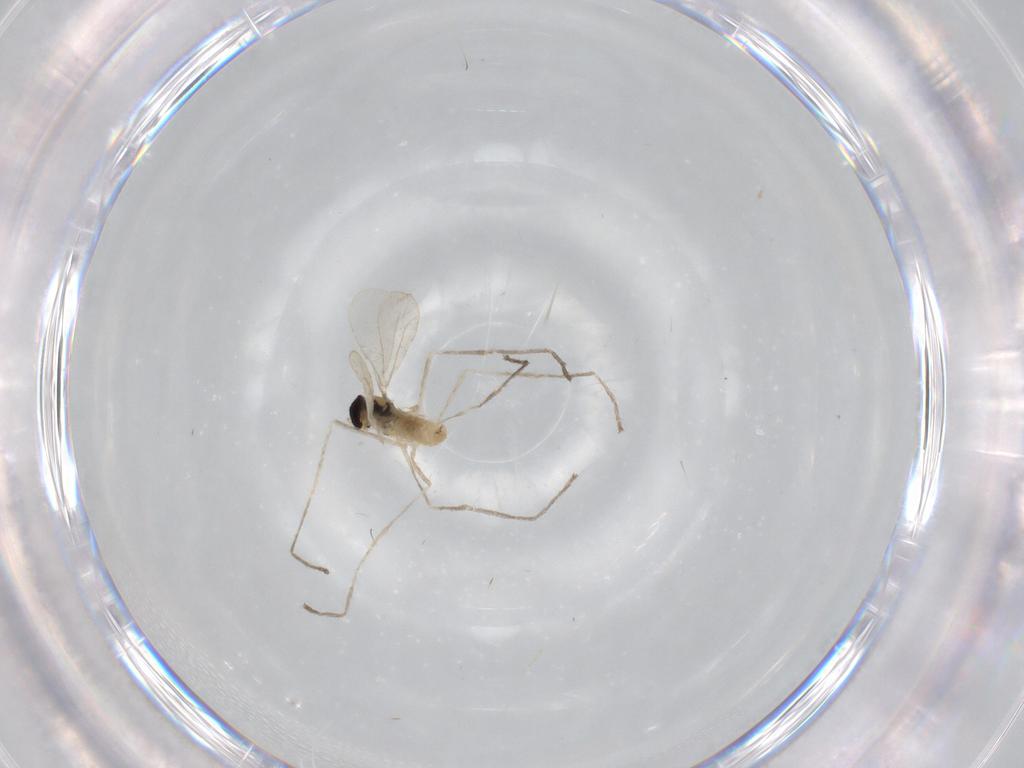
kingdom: Animalia
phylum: Arthropoda
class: Insecta
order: Diptera
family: Cecidomyiidae
